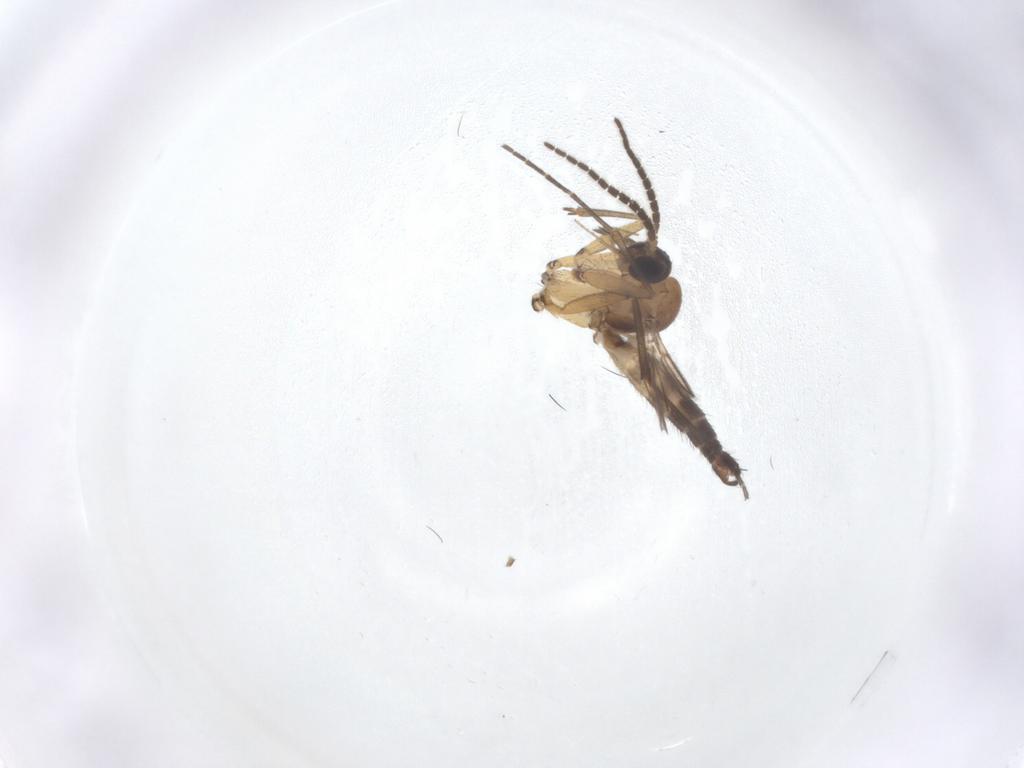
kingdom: Animalia
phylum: Arthropoda
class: Insecta
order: Diptera
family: Mycetophilidae
